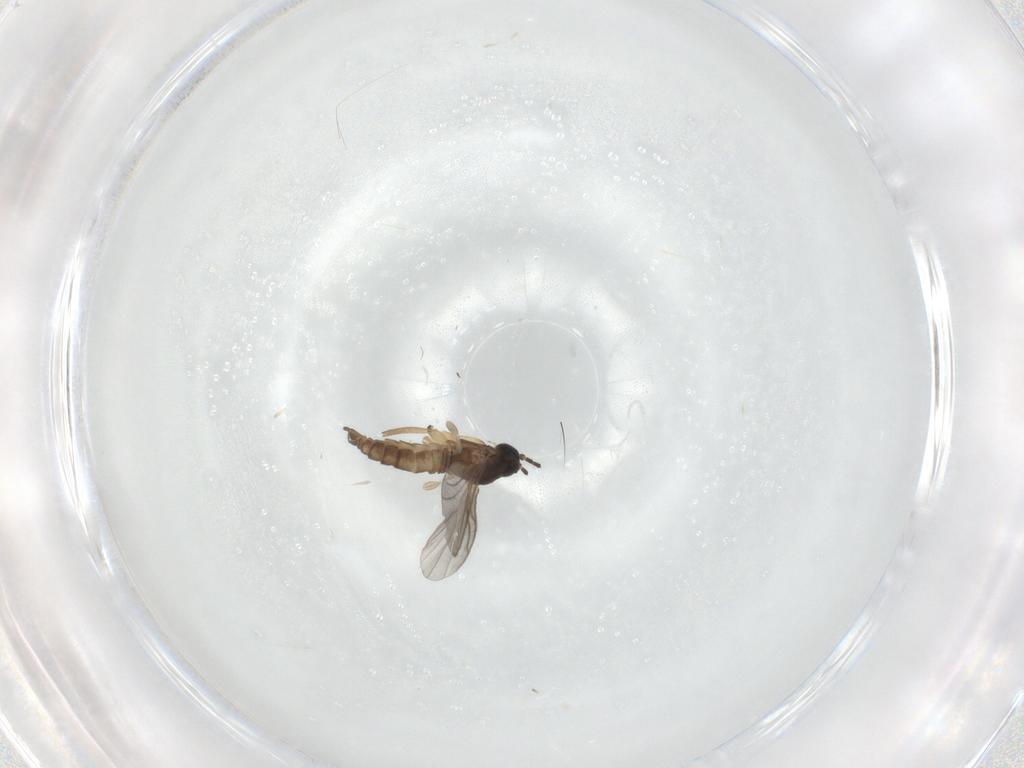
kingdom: Animalia
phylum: Arthropoda
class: Insecta
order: Diptera
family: Sciaridae
